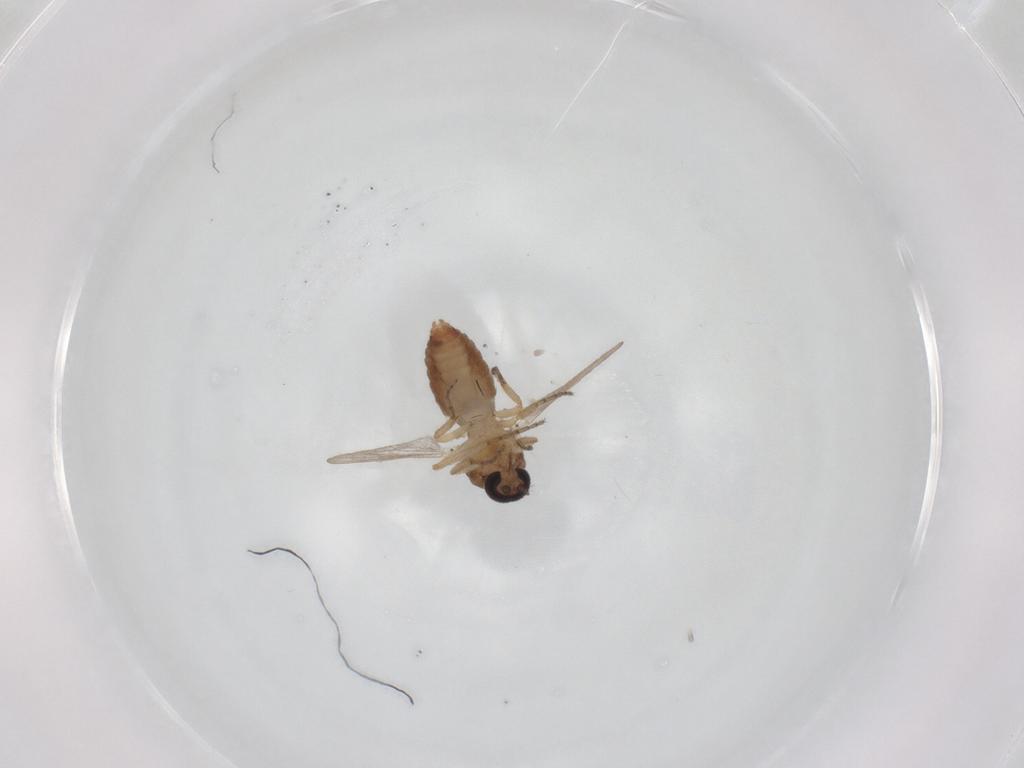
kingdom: Animalia
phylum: Arthropoda
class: Insecta
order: Diptera
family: Ceratopogonidae
